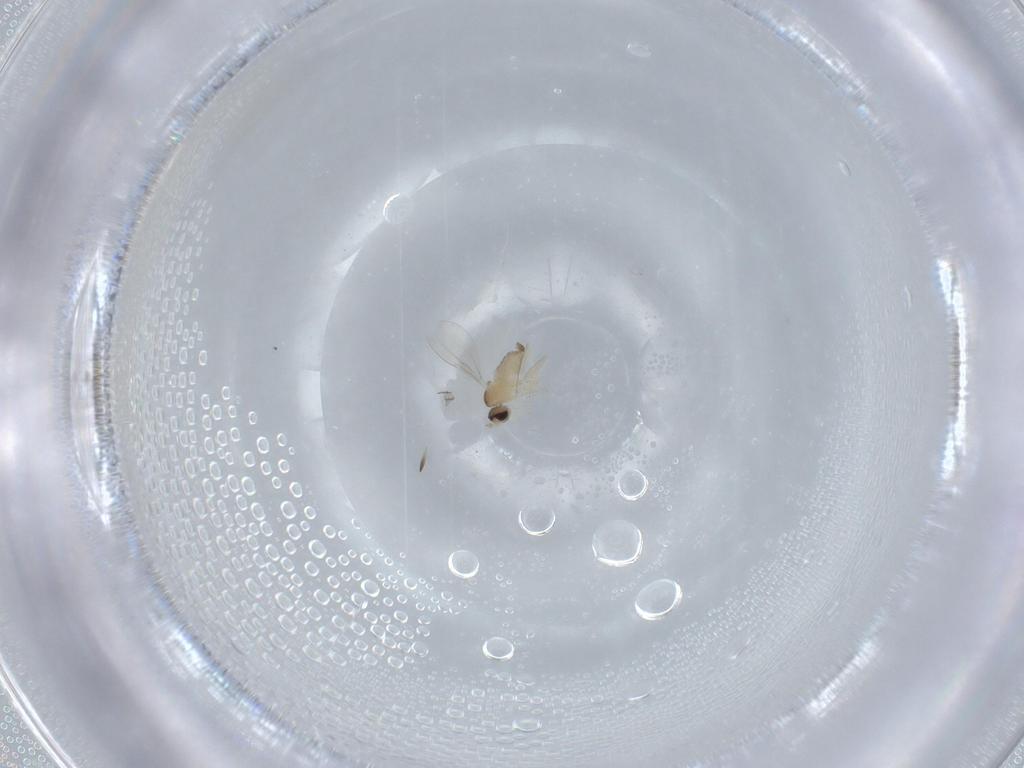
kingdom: Animalia
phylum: Arthropoda
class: Insecta
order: Diptera
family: Cecidomyiidae
